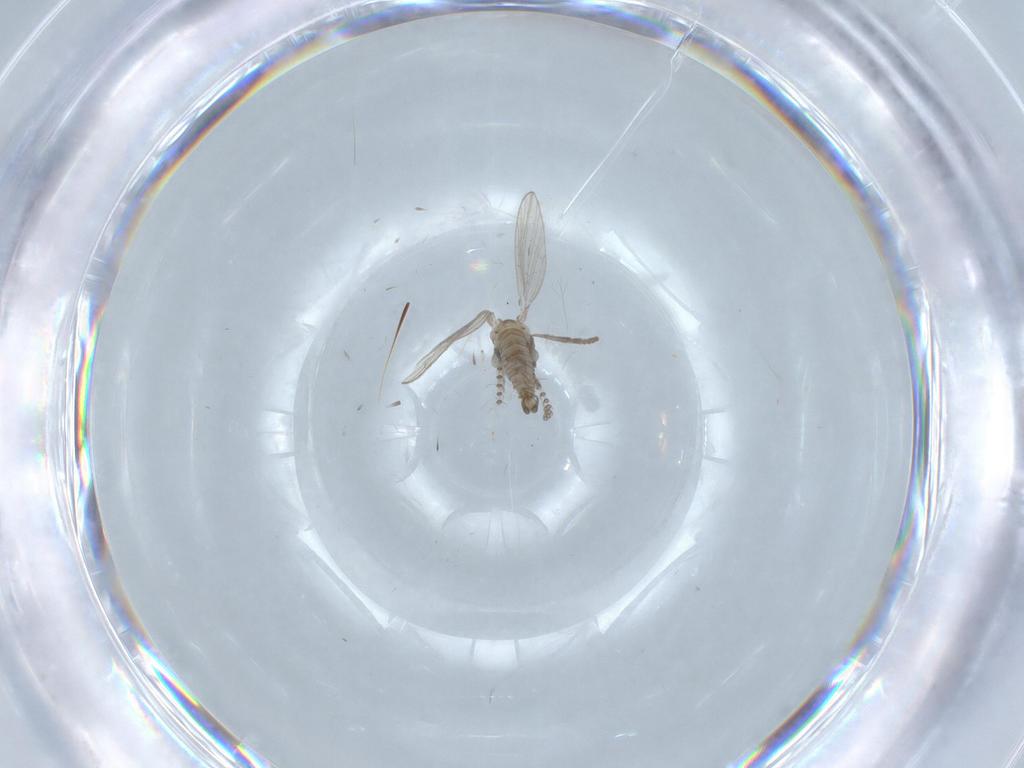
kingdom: Animalia
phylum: Arthropoda
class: Insecta
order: Diptera
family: Psychodidae
